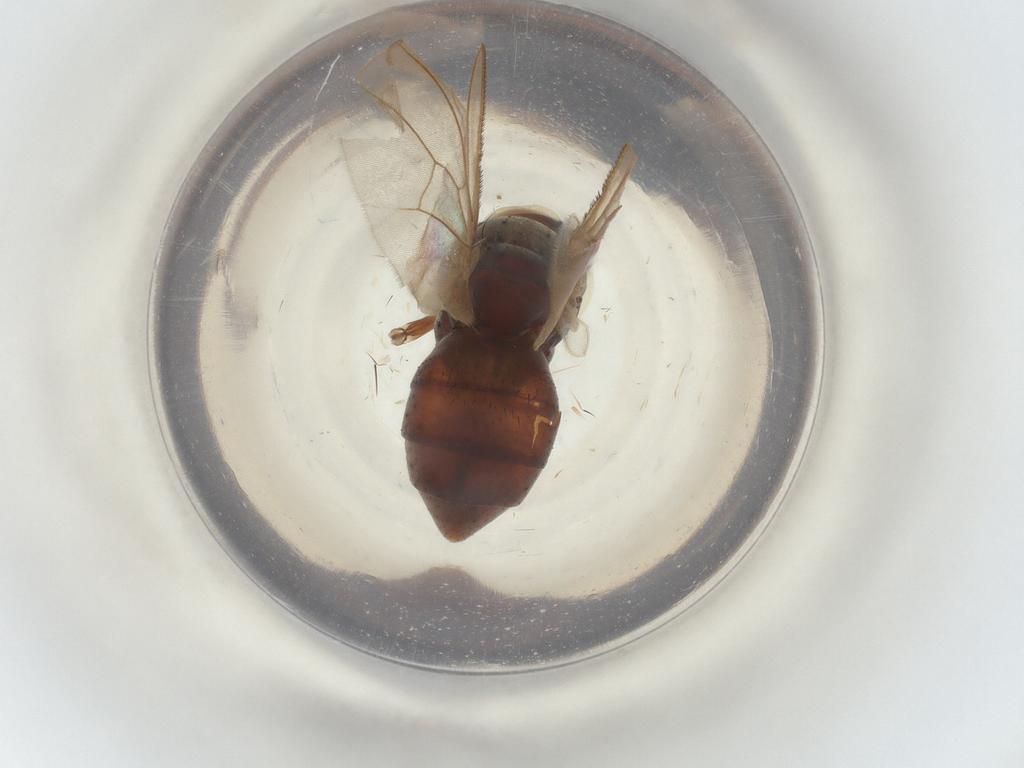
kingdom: Animalia
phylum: Arthropoda
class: Insecta
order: Diptera
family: Muscidae
